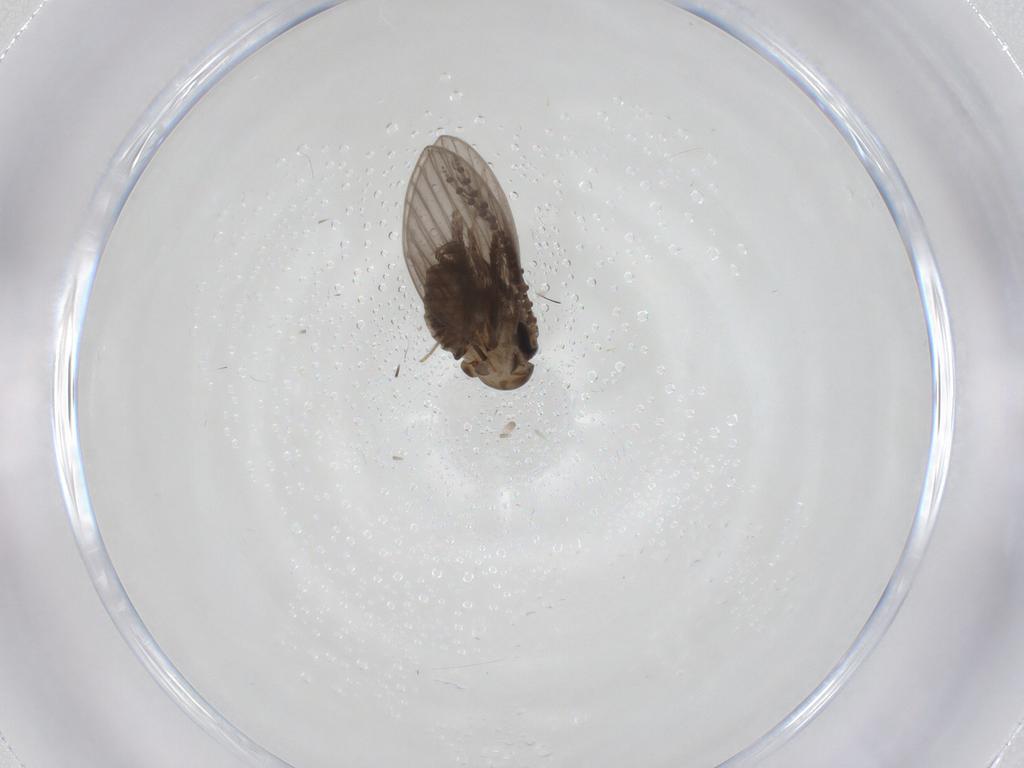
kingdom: Animalia
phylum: Arthropoda
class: Insecta
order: Diptera
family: Psychodidae
